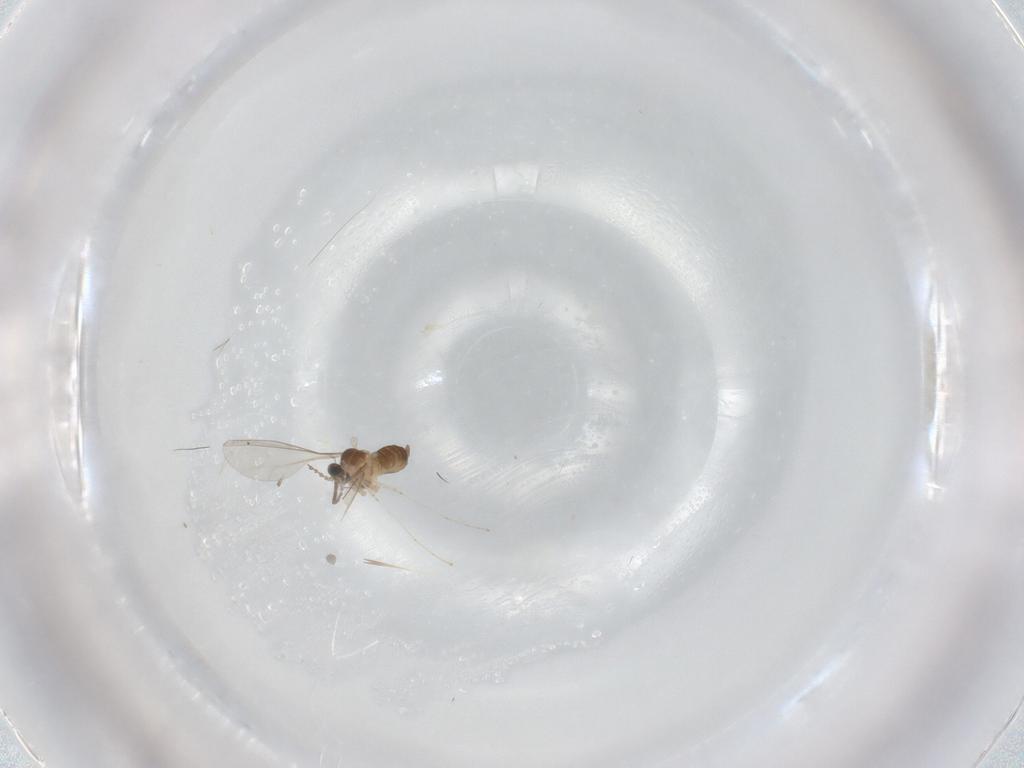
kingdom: Animalia
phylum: Arthropoda
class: Insecta
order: Diptera
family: Cecidomyiidae
